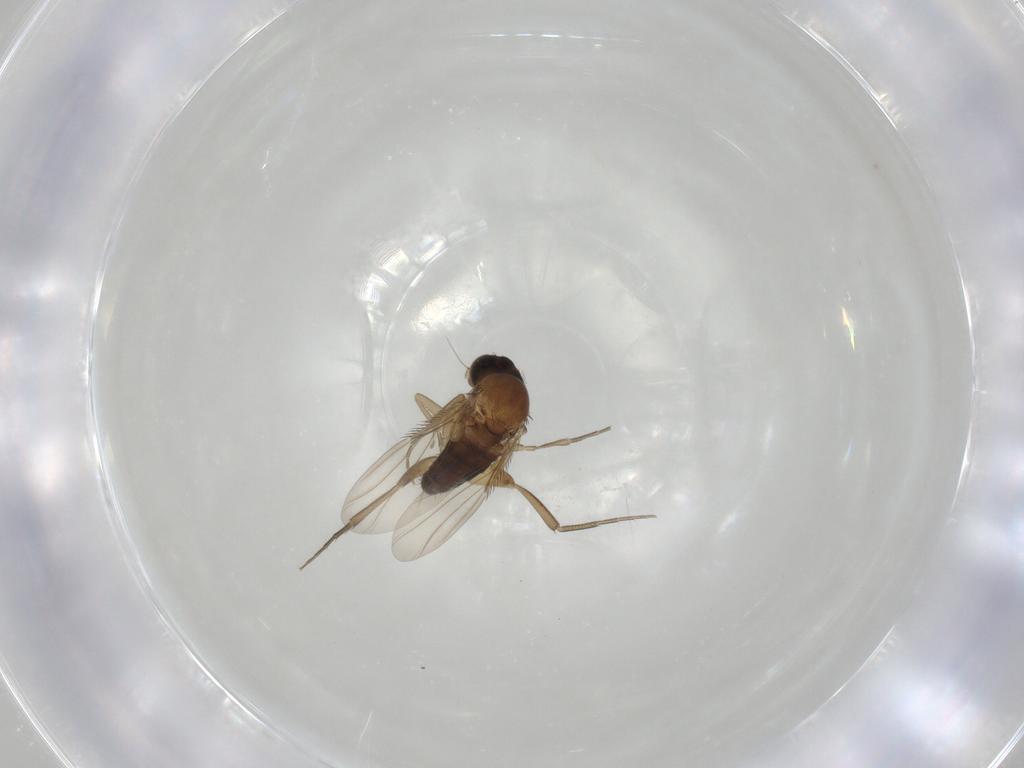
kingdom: Animalia
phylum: Arthropoda
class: Insecta
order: Diptera
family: Phoridae
